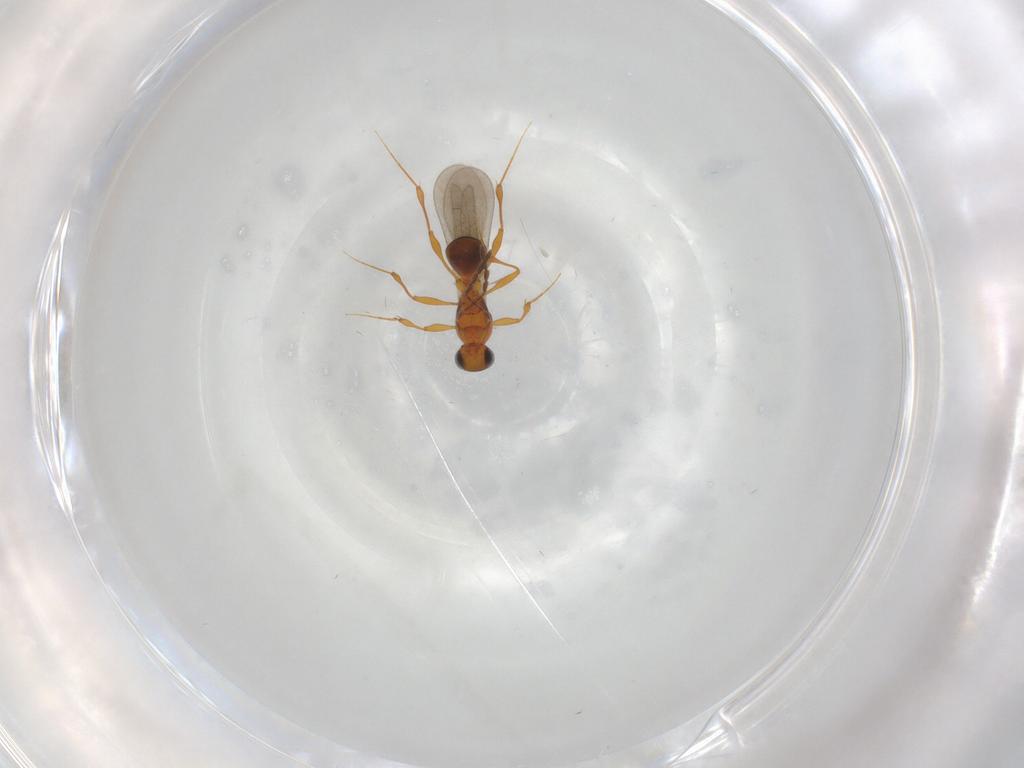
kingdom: Animalia
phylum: Arthropoda
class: Insecta
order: Hymenoptera
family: Platygastridae
